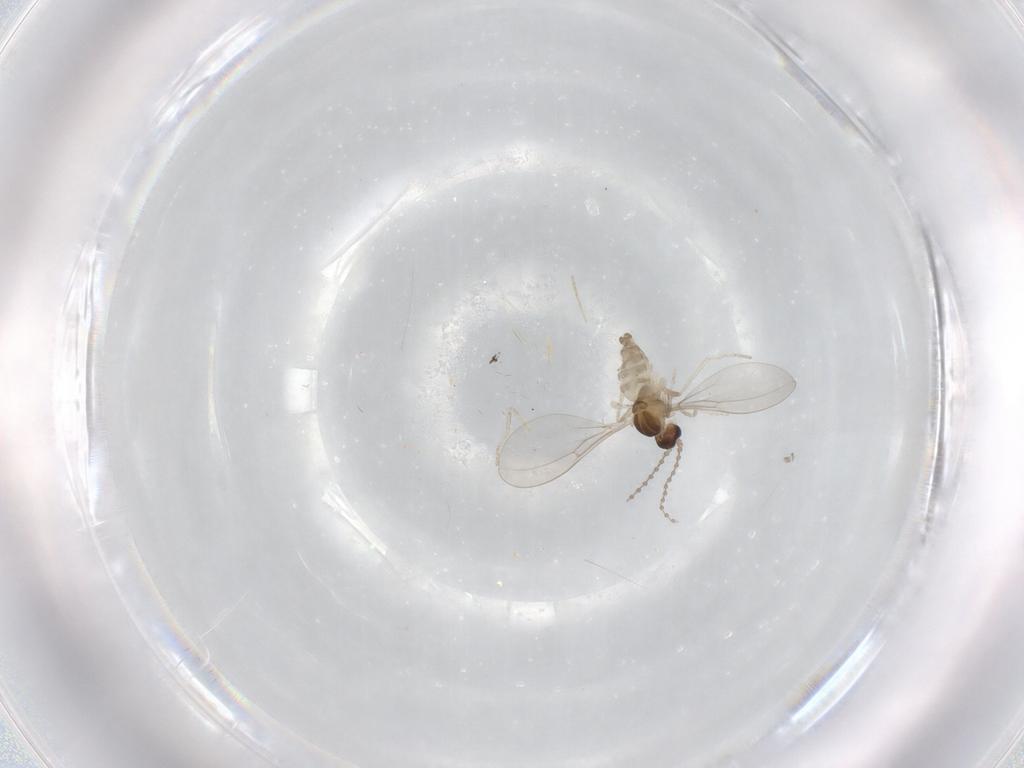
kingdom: Animalia
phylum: Arthropoda
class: Insecta
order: Diptera
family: Cecidomyiidae
